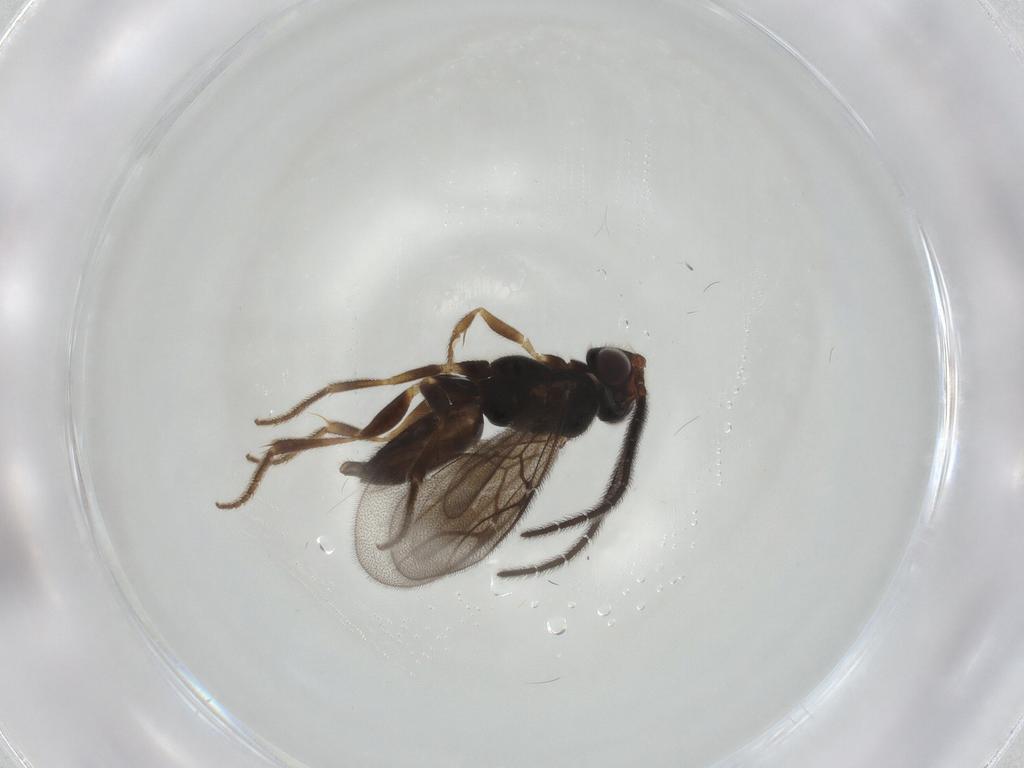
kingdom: Animalia
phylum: Arthropoda
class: Insecta
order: Hymenoptera
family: Dryinidae
